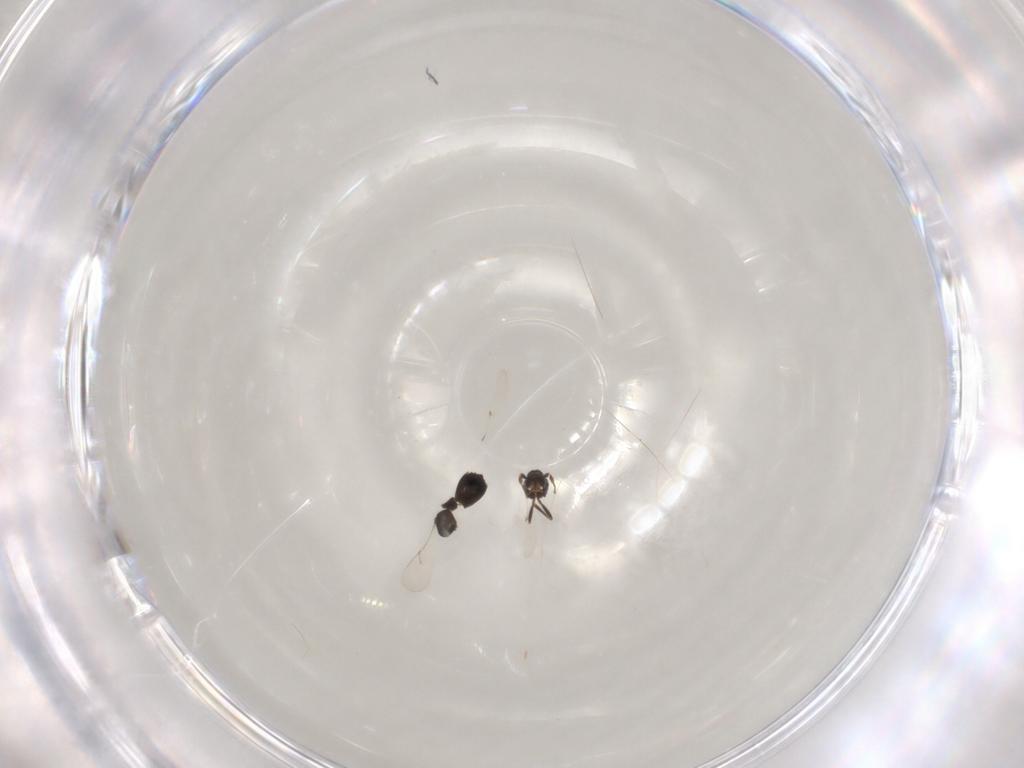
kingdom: Animalia
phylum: Arthropoda
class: Insecta
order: Hymenoptera
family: Scelionidae
